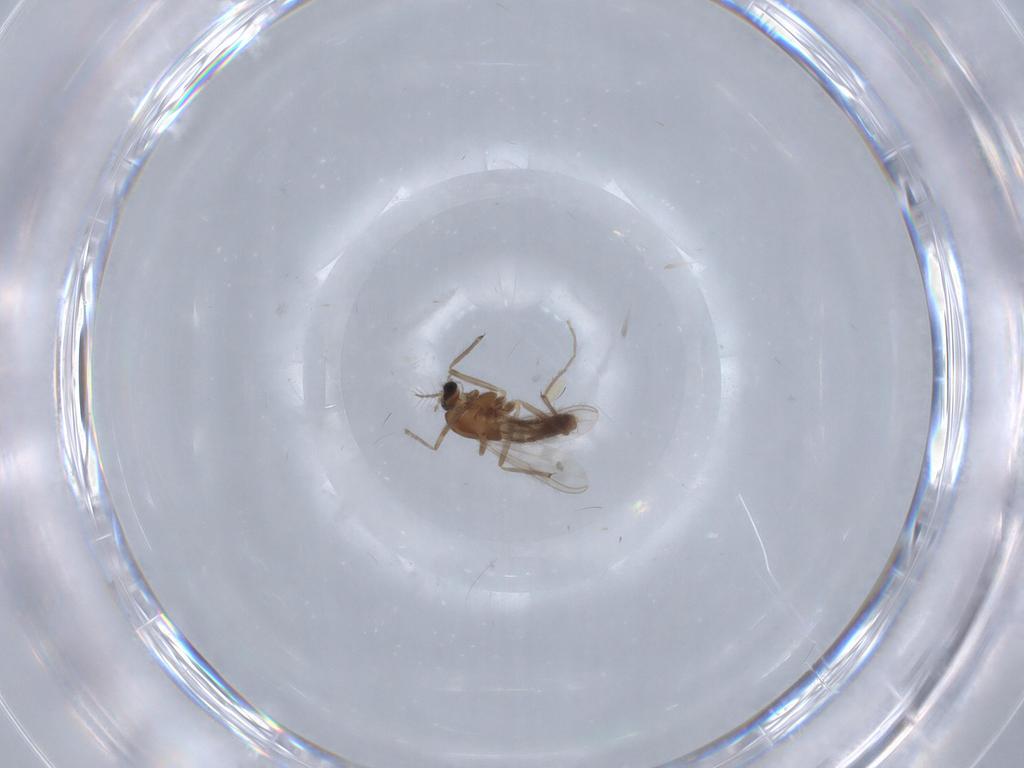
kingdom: Animalia
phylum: Arthropoda
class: Insecta
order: Diptera
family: Chironomidae
